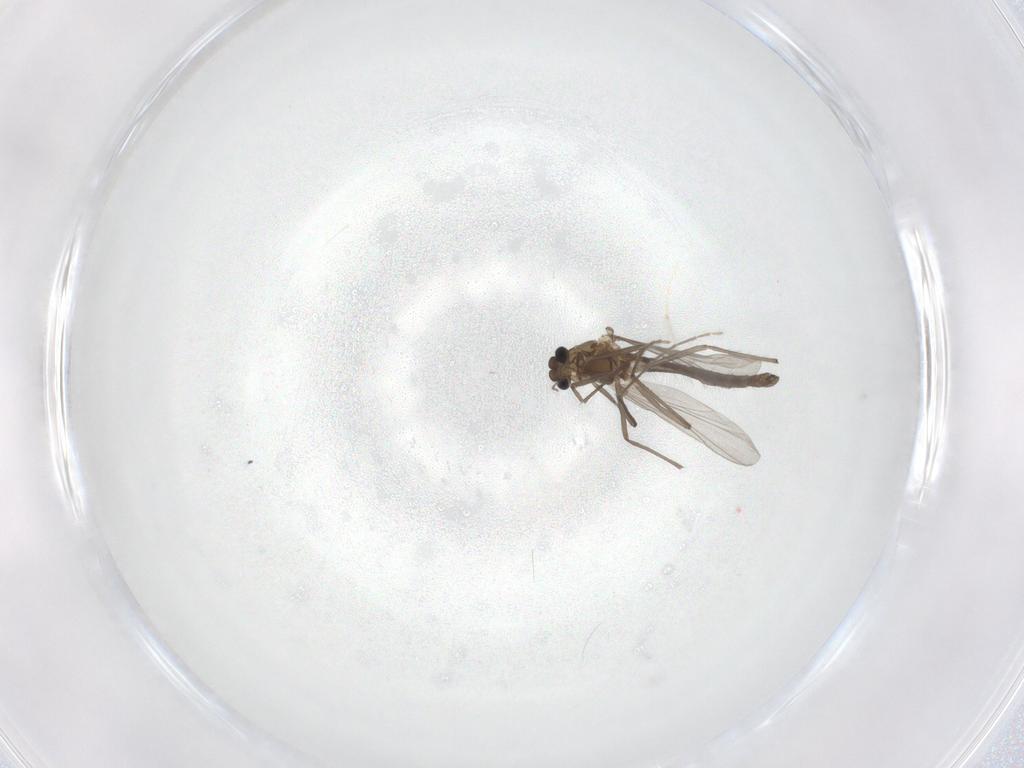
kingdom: Animalia
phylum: Arthropoda
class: Insecta
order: Diptera
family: Chironomidae
